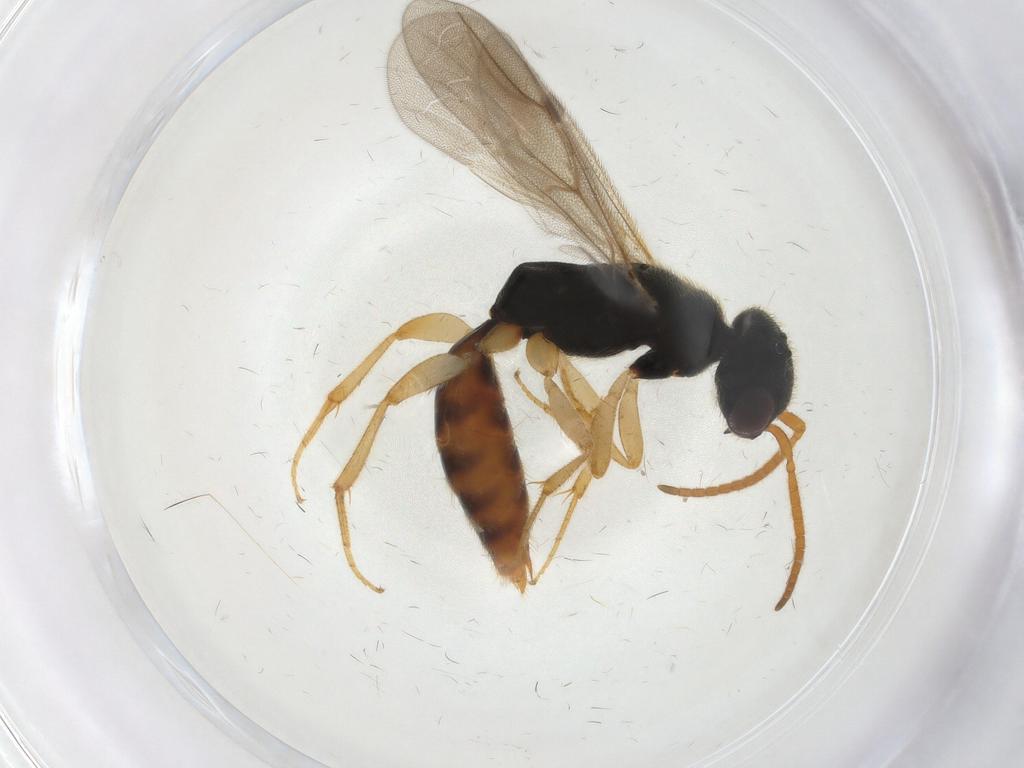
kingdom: Animalia
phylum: Arthropoda
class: Insecta
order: Hymenoptera
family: Bethylidae
